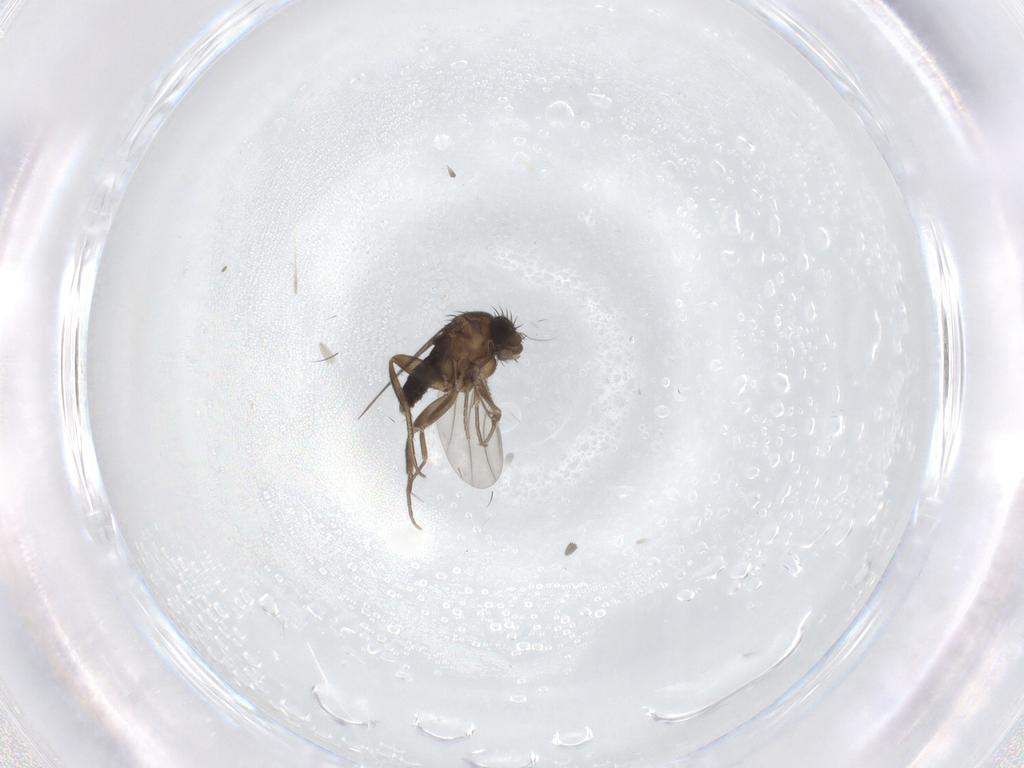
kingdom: Animalia
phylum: Arthropoda
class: Insecta
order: Diptera
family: Phoridae
